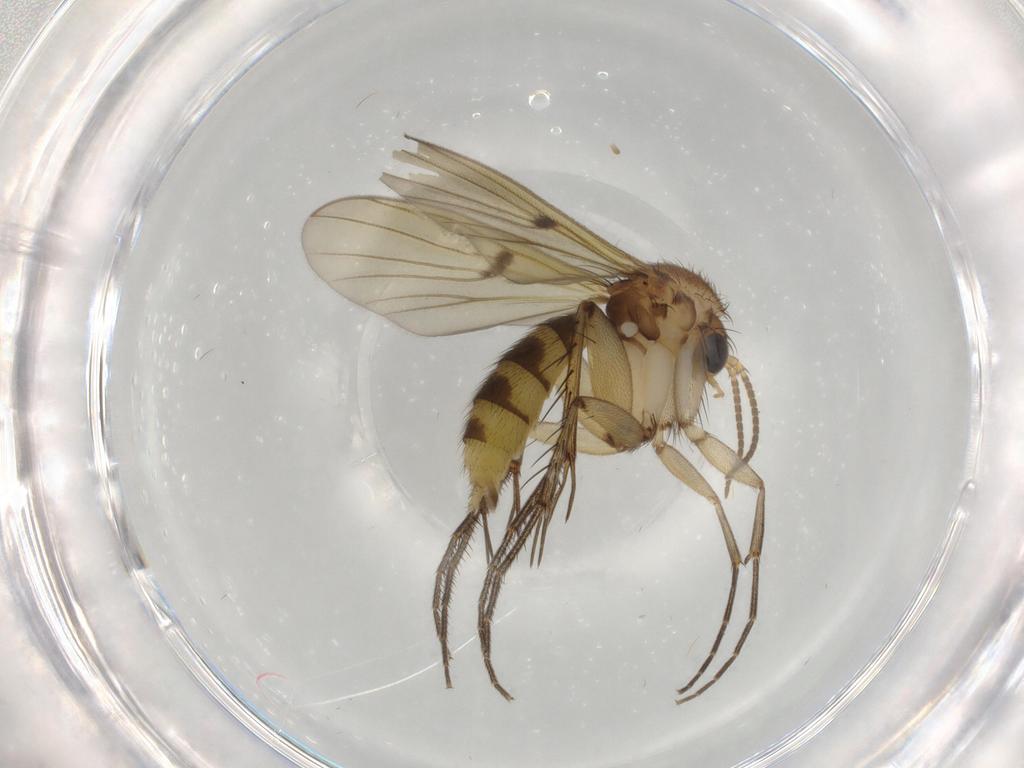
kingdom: Animalia
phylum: Arthropoda
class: Insecta
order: Diptera
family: Sphaeroceridae
